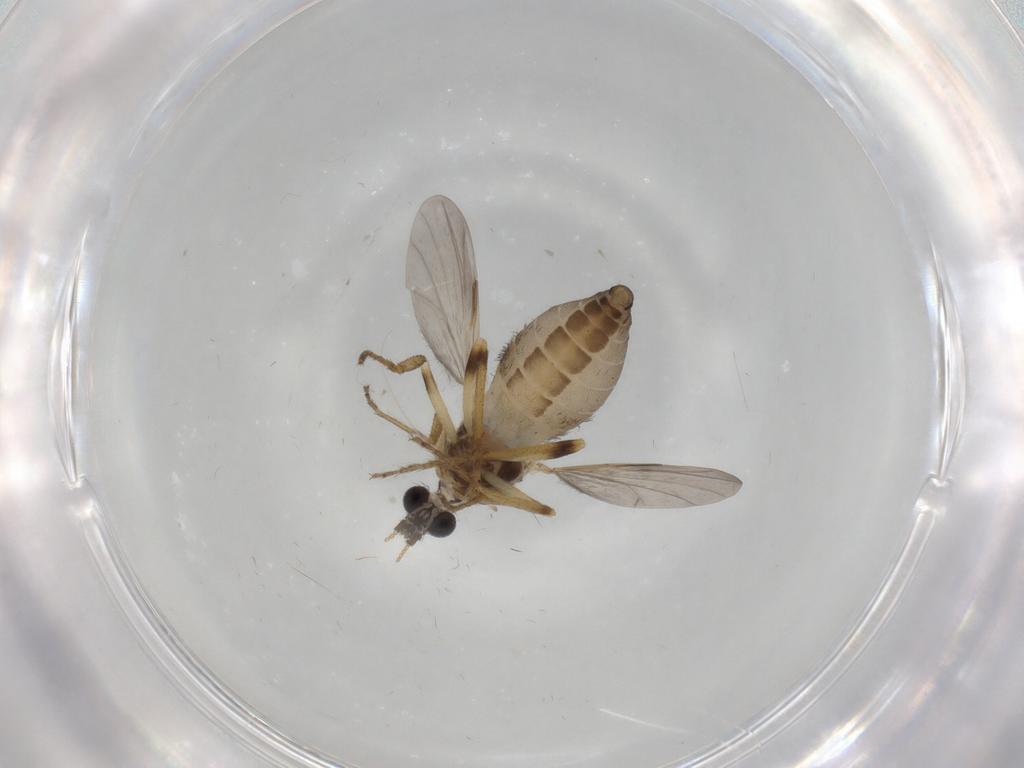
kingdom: Animalia
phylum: Arthropoda
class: Insecta
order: Diptera
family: Ceratopogonidae
